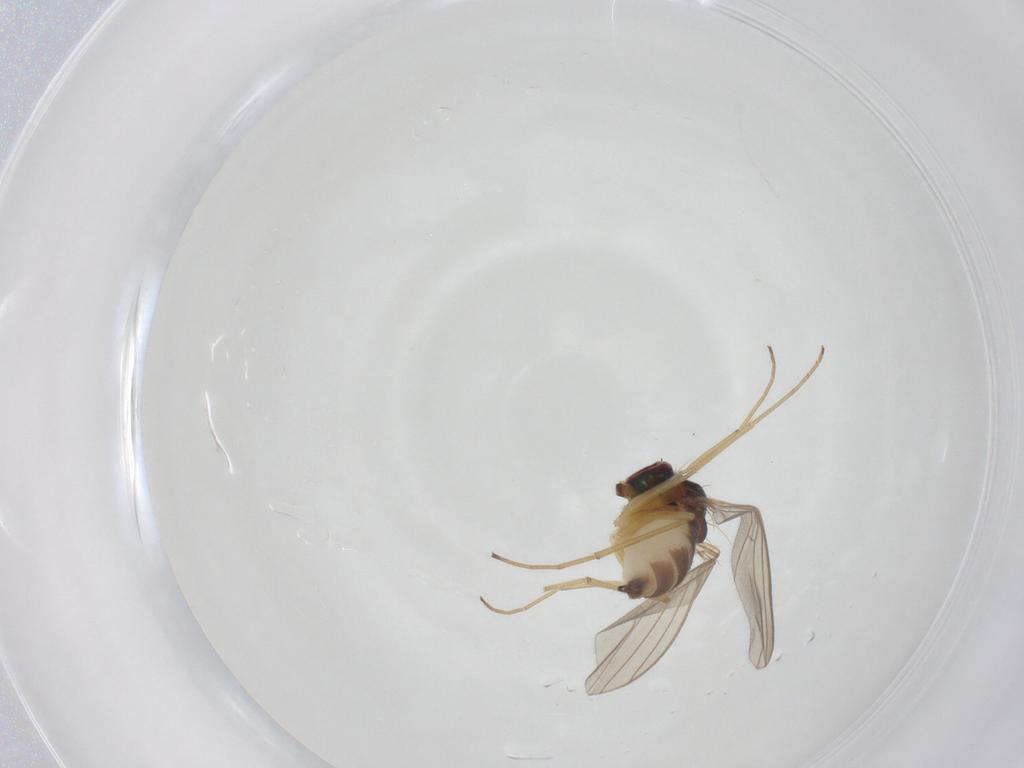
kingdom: Animalia
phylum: Arthropoda
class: Insecta
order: Diptera
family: Dolichopodidae
